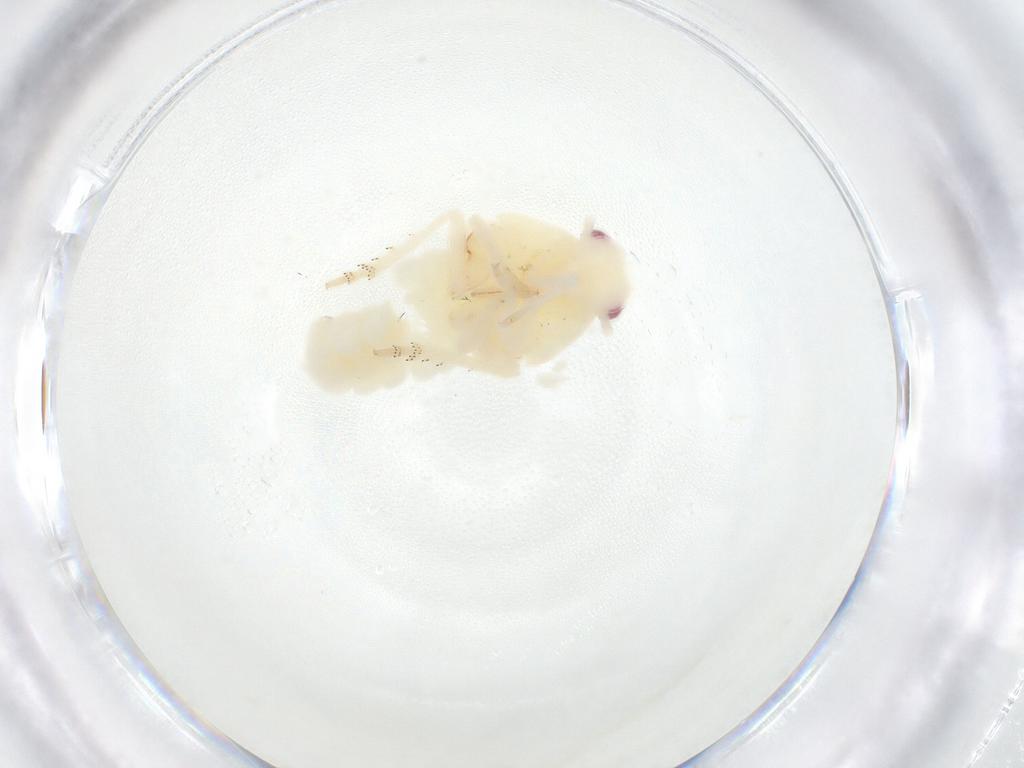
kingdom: Animalia
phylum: Arthropoda
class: Insecta
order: Hemiptera
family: Flatidae
